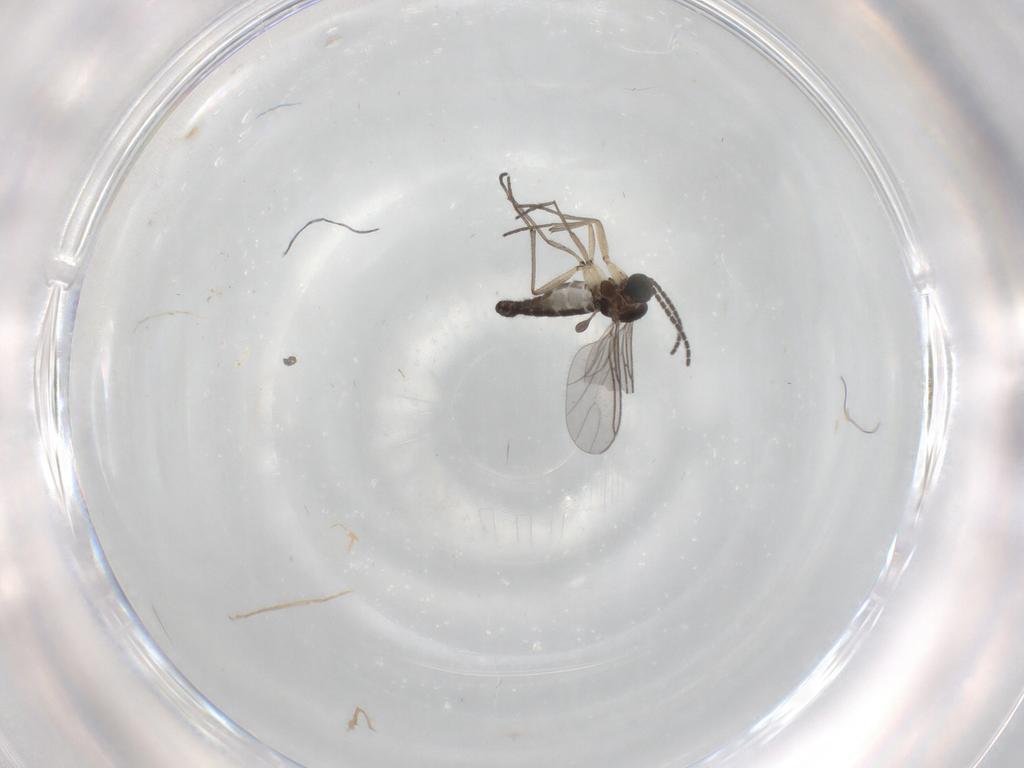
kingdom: Animalia
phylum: Arthropoda
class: Insecta
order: Diptera
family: Sciaridae
